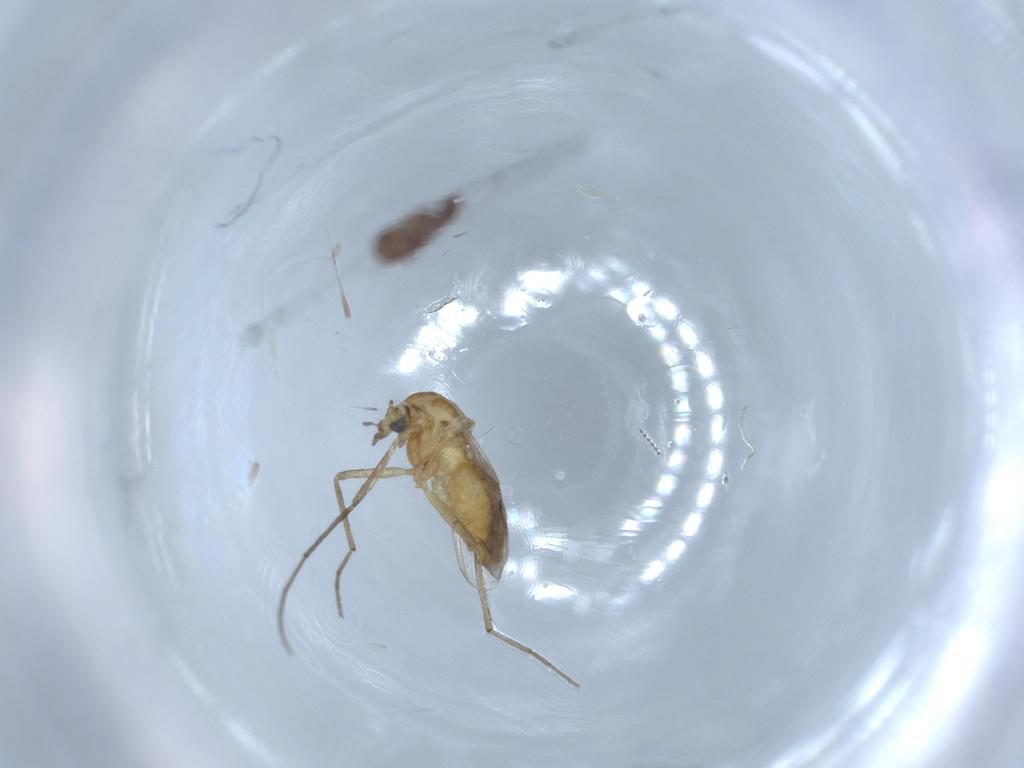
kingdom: Animalia
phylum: Arthropoda
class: Insecta
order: Diptera
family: Chironomidae
